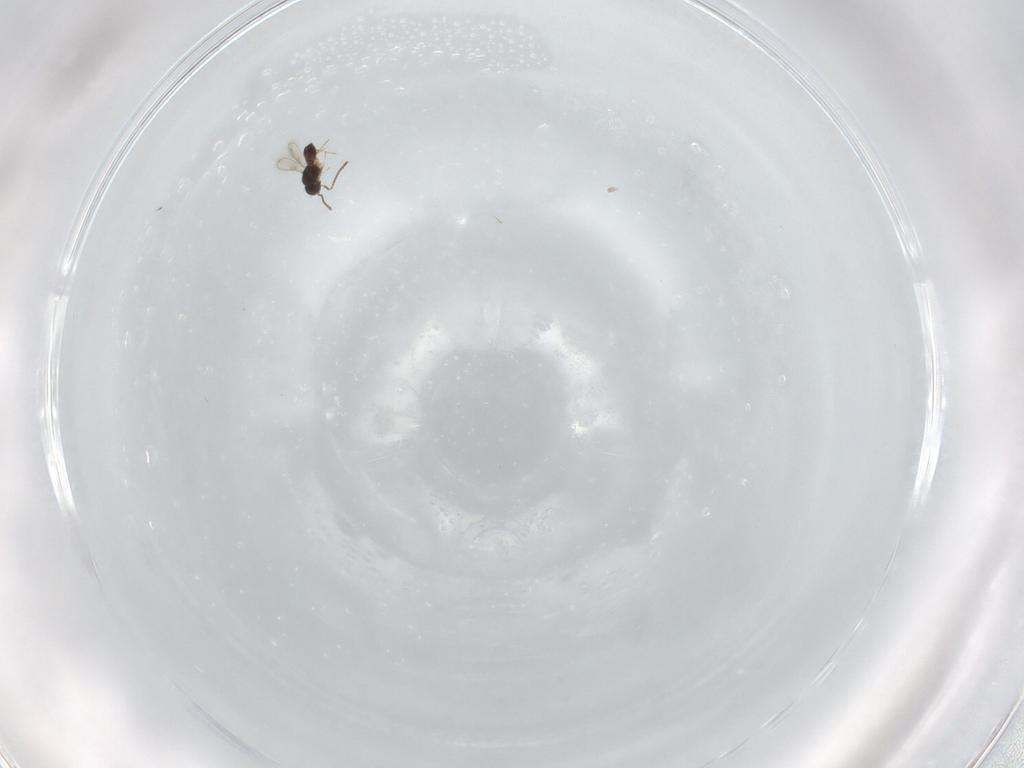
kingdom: Animalia
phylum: Arthropoda
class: Insecta
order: Hymenoptera
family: Scelionidae
